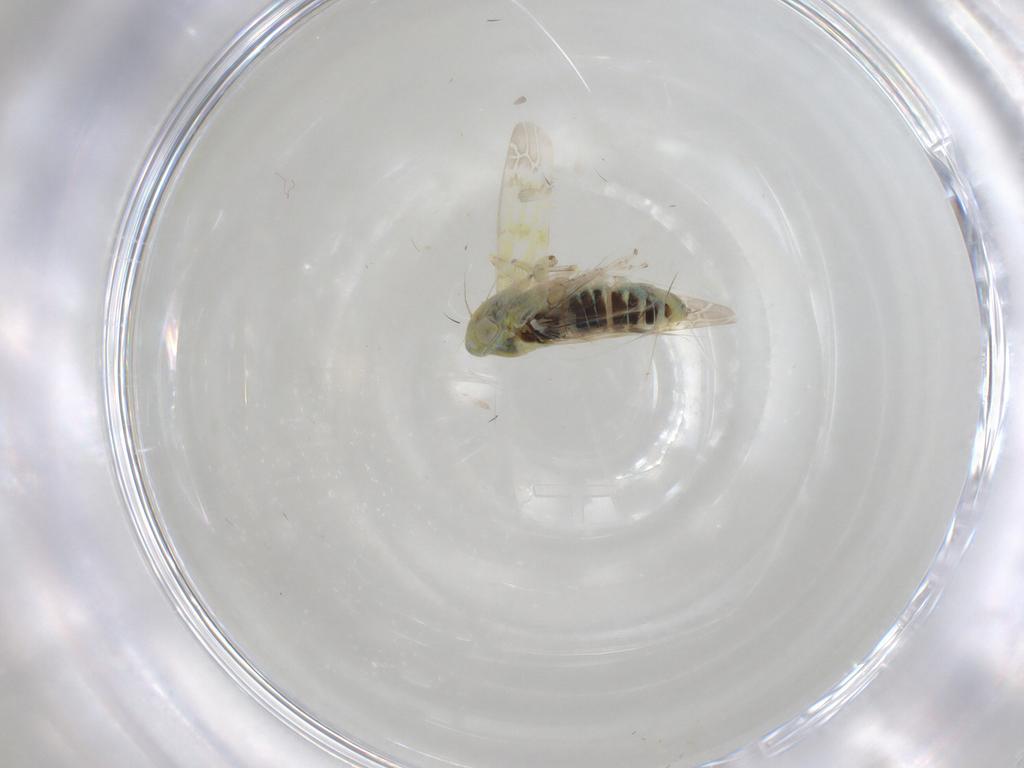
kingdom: Animalia
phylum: Arthropoda
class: Insecta
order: Hemiptera
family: Cicadellidae
